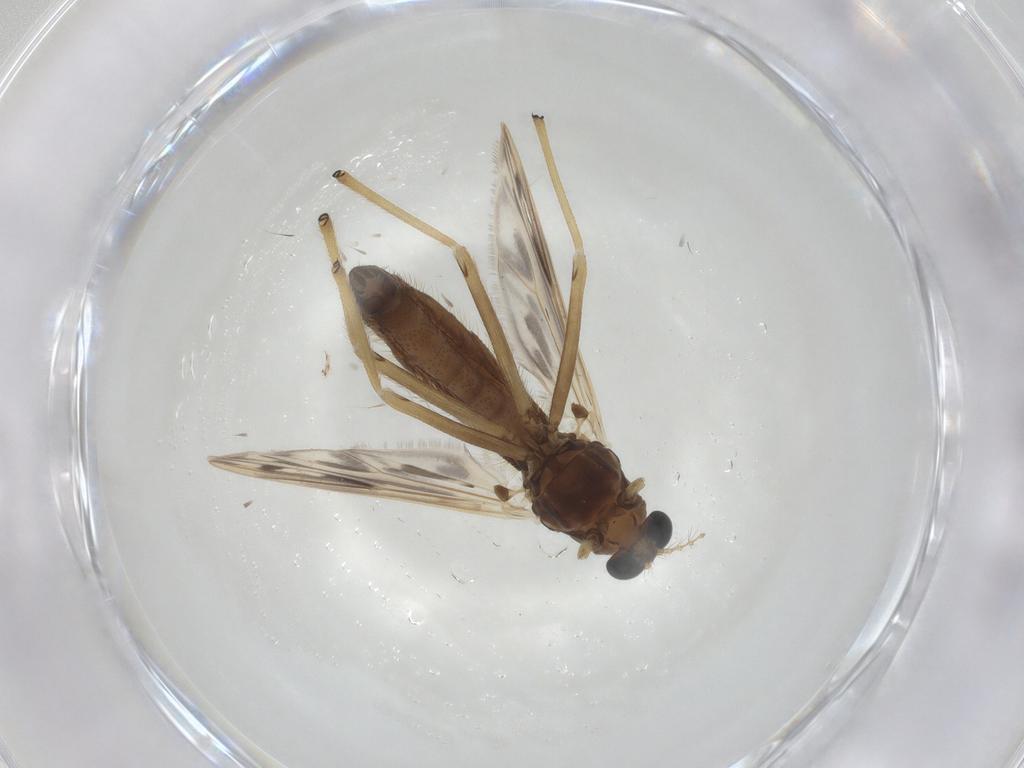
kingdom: Animalia
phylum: Arthropoda
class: Insecta
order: Diptera
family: Chironomidae
